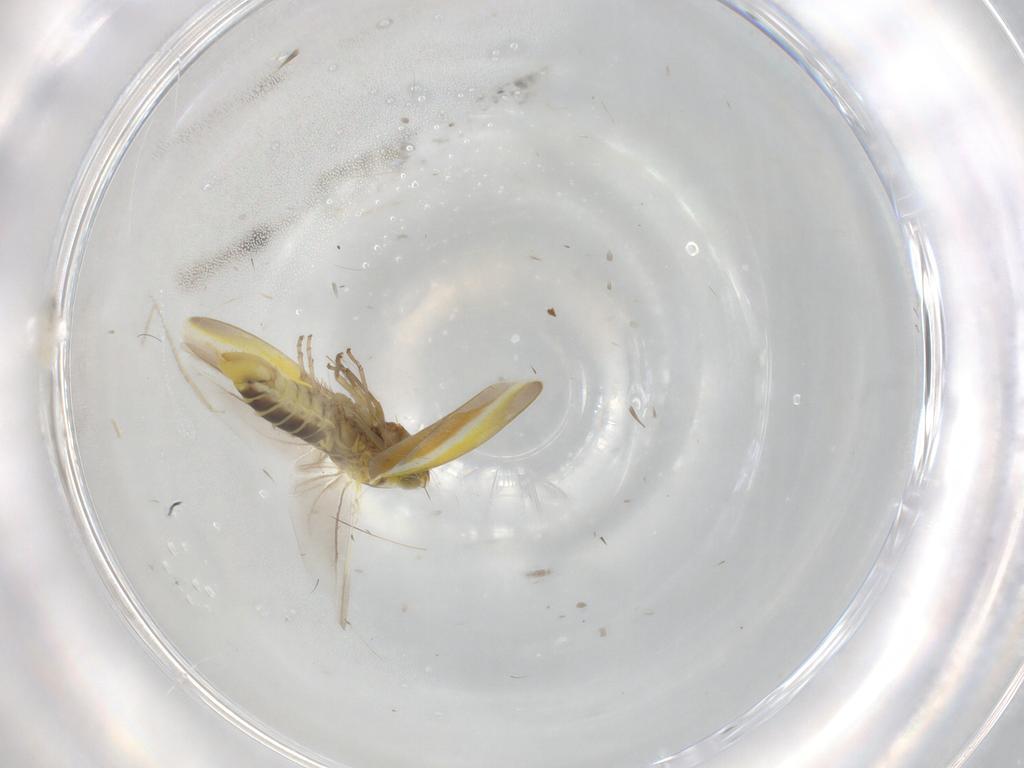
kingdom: Animalia
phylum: Arthropoda
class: Insecta
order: Hemiptera
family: Cicadellidae
